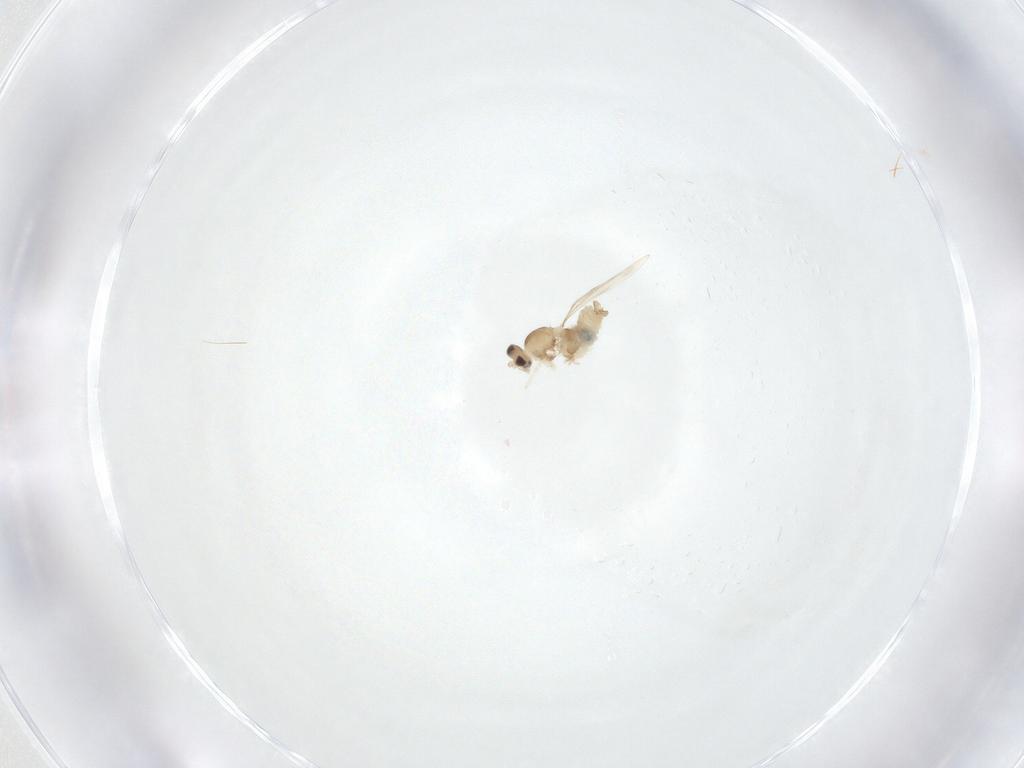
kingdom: Animalia
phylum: Arthropoda
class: Insecta
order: Diptera
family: Cecidomyiidae
